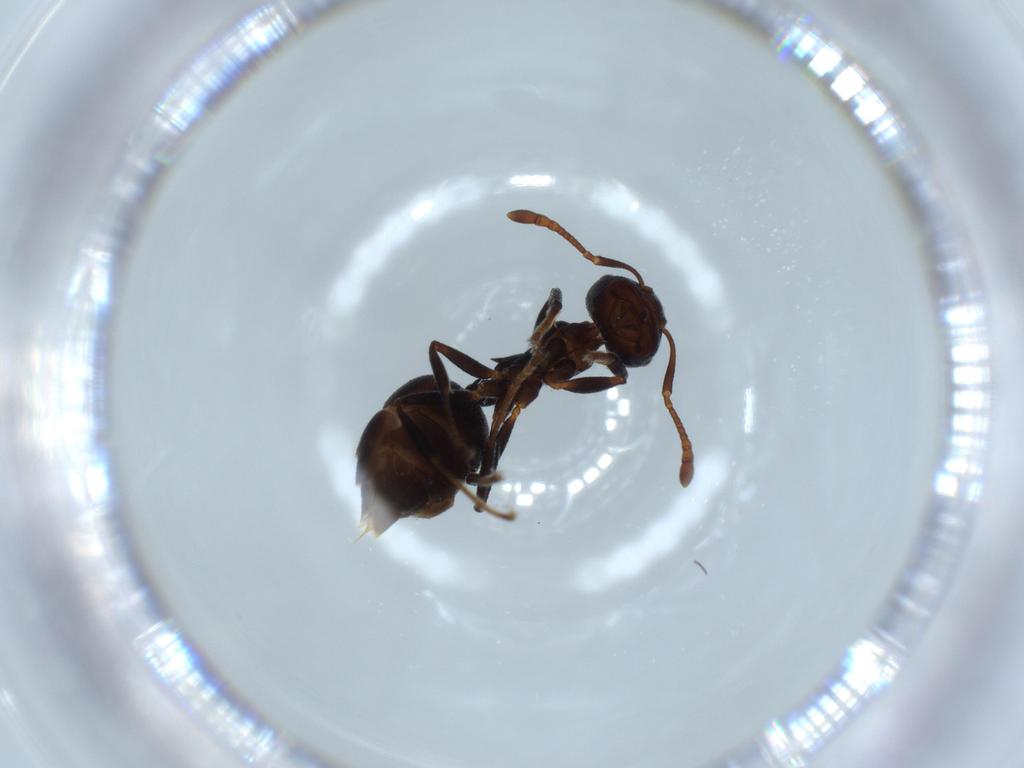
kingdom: Animalia
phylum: Arthropoda
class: Insecta
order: Hymenoptera
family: Formicidae
